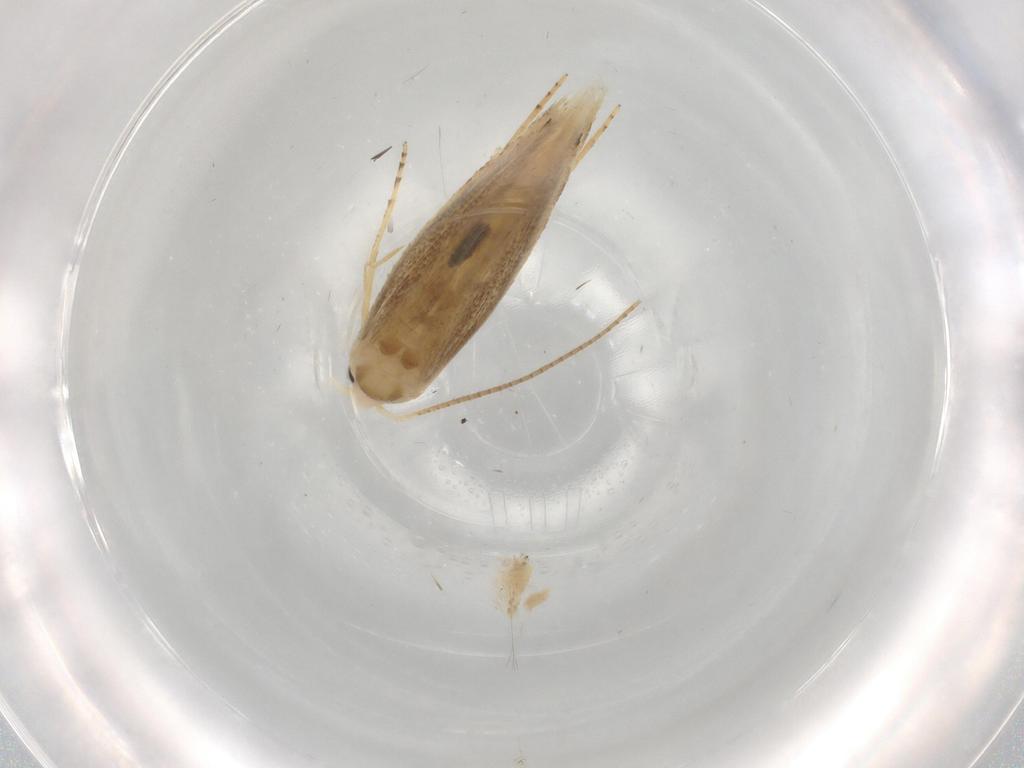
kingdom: Animalia
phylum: Arthropoda
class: Insecta
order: Lepidoptera
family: Bucculatricidae
